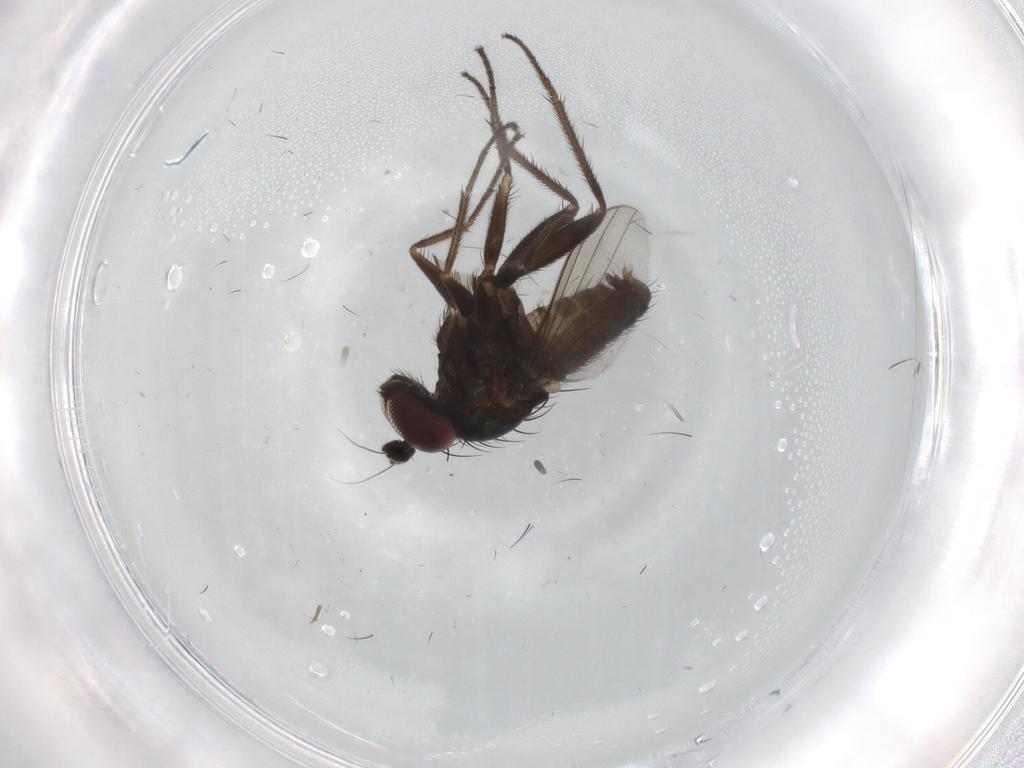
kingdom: Animalia
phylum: Arthropoda
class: Insecta
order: Diptera
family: Dolichopodidae
